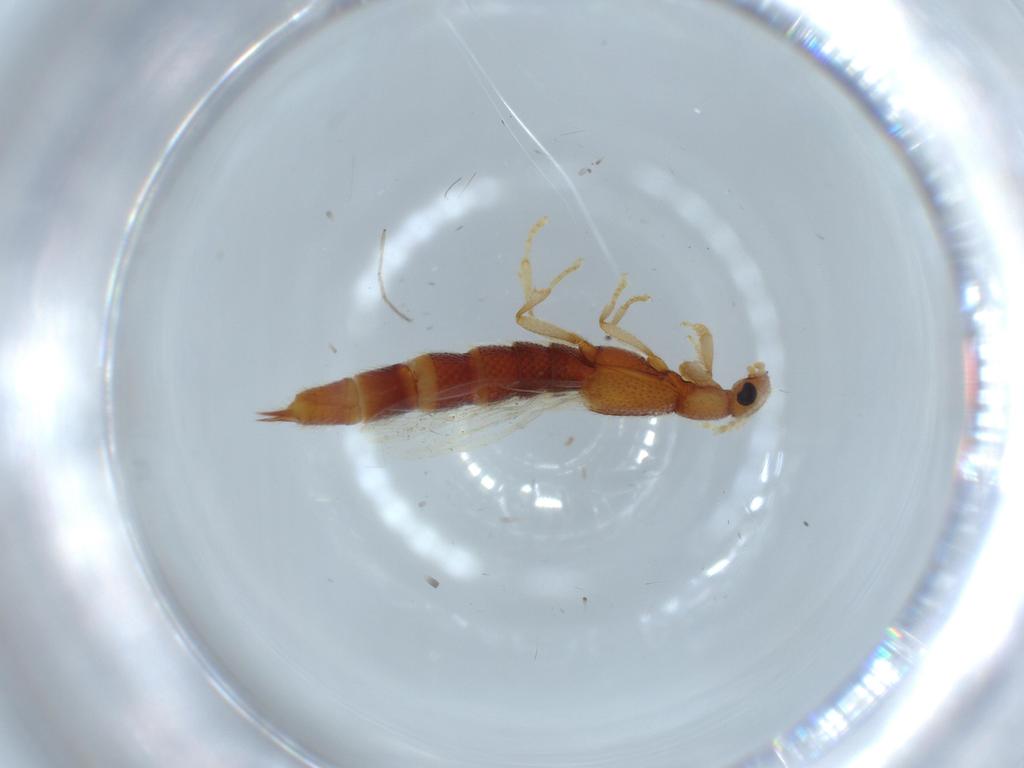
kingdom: Animalia
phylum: Arthropoda
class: Insecta
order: Coleoptera
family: Staphylinidae
